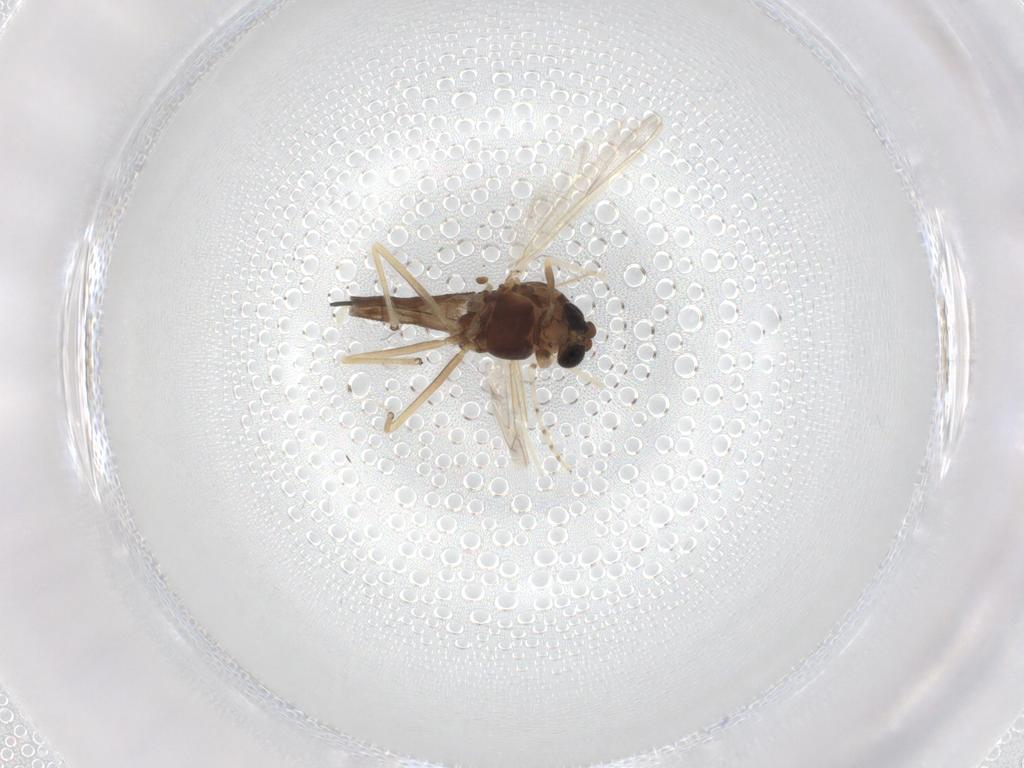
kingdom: Animalia
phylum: Arthropoda
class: Insecta
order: Diptera
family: Chironomidae
